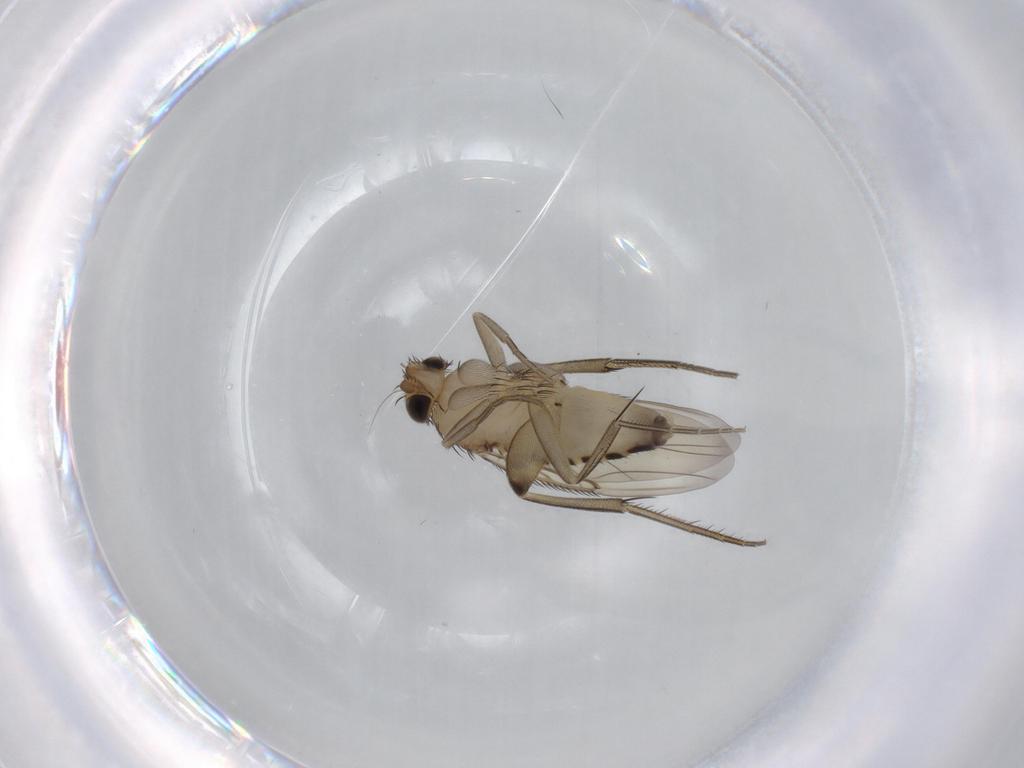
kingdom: Animalia
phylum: Arthropoda
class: Insecta
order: Diptera
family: Phoridae
